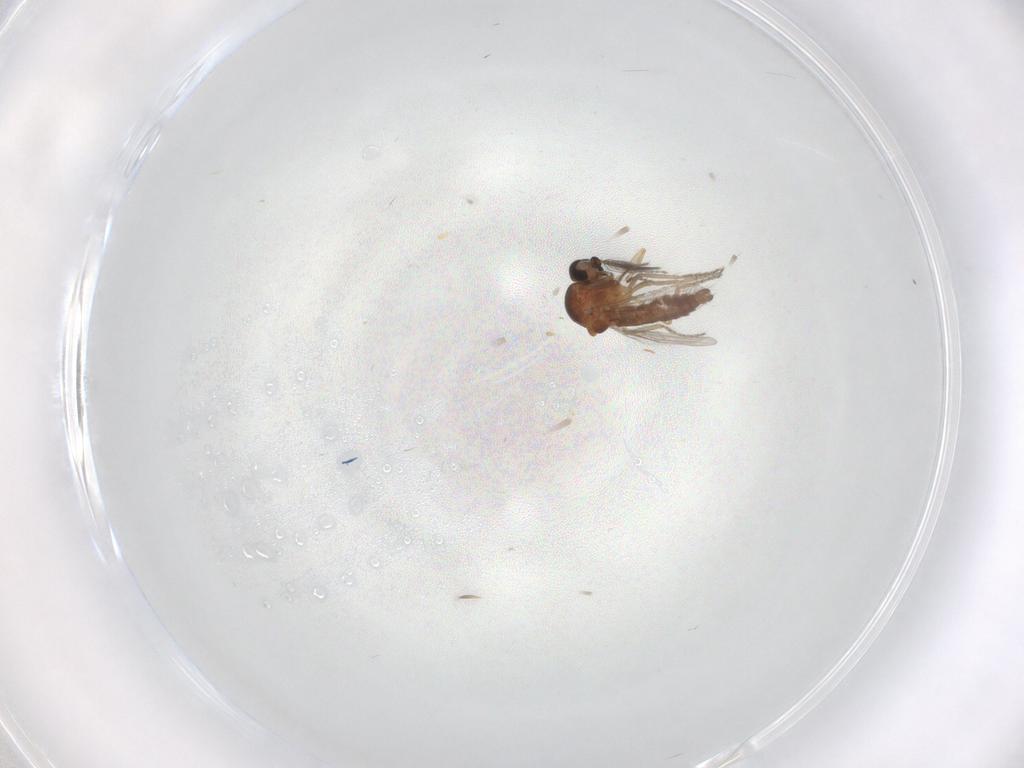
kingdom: Animalia
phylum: Arthropoda
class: Insecta
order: Diptera
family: Ceratopogonidae
